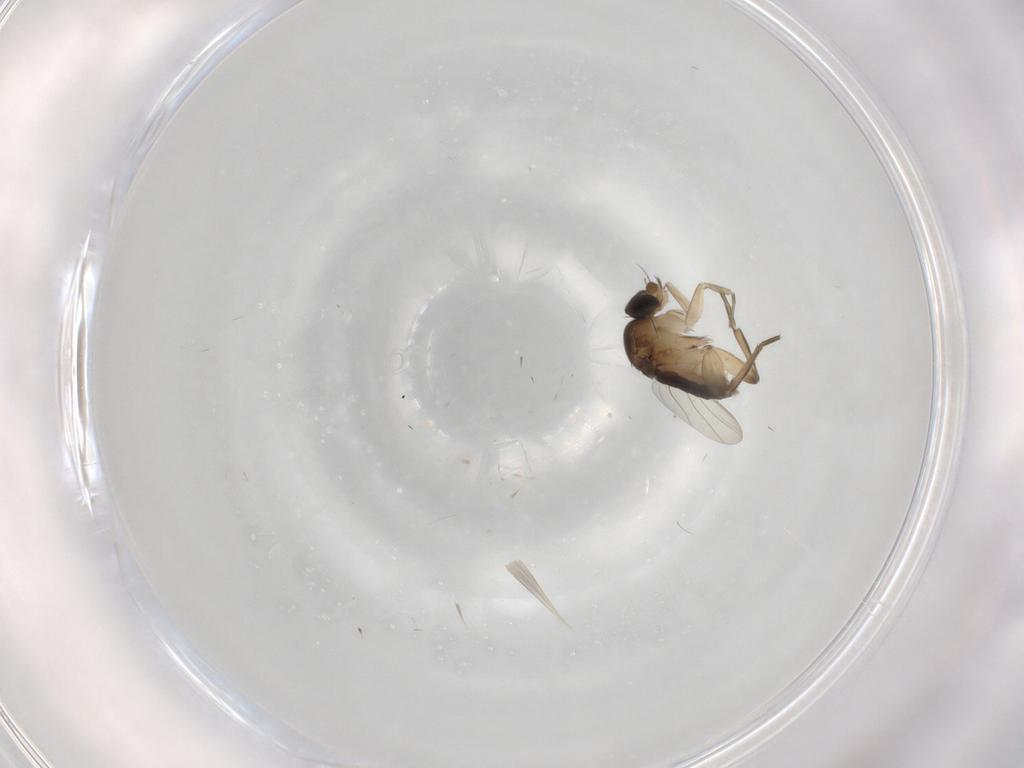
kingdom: Animalia
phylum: Arthropoda
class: Insecta
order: Diptera
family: Phoridae
